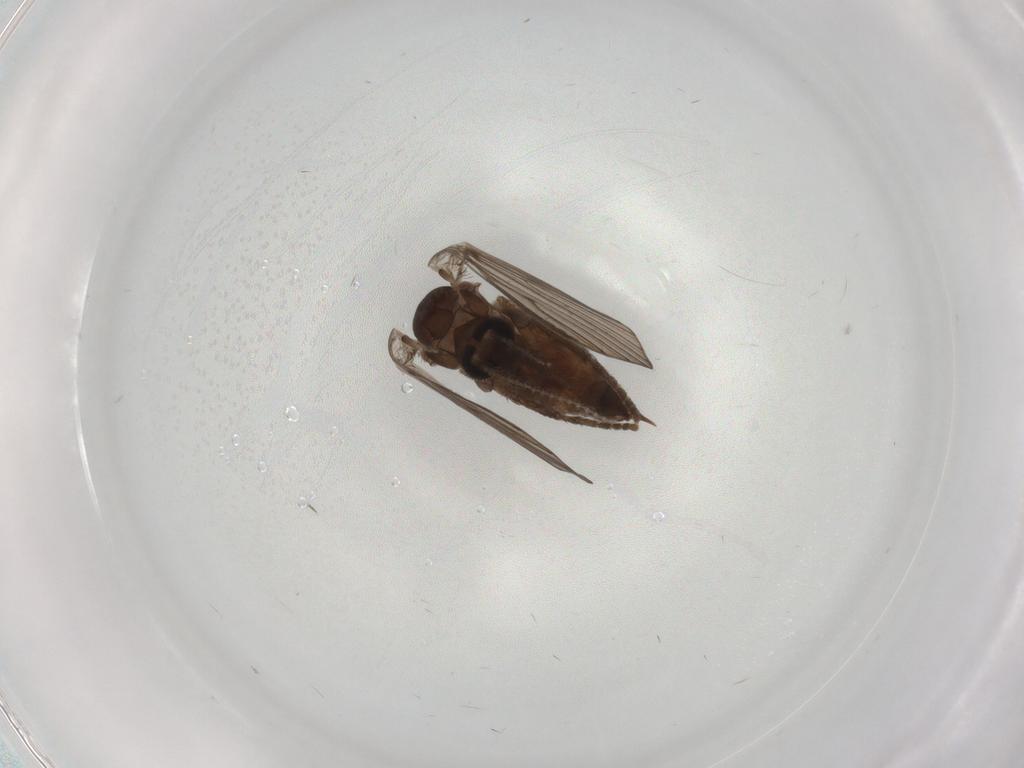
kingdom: Animalia
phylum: Arthropoda
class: Insecta
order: Diptera
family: Psychodidae
